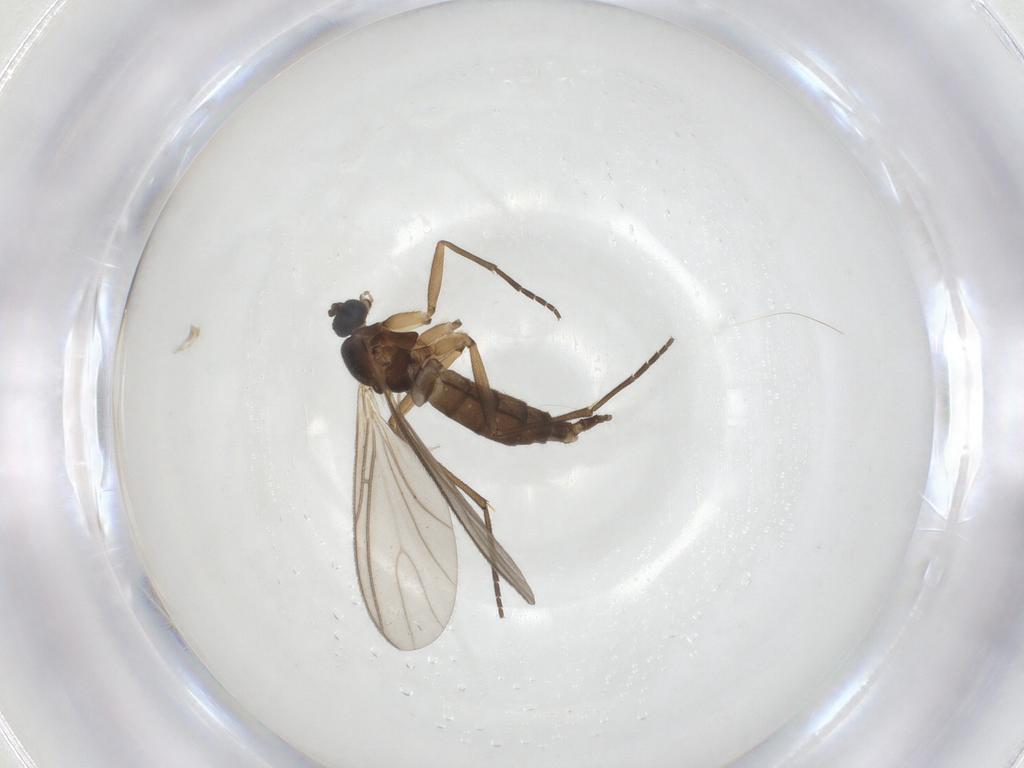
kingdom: Animalia
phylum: Arthropoda
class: Insecta
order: Diptera
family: Sciaridae
